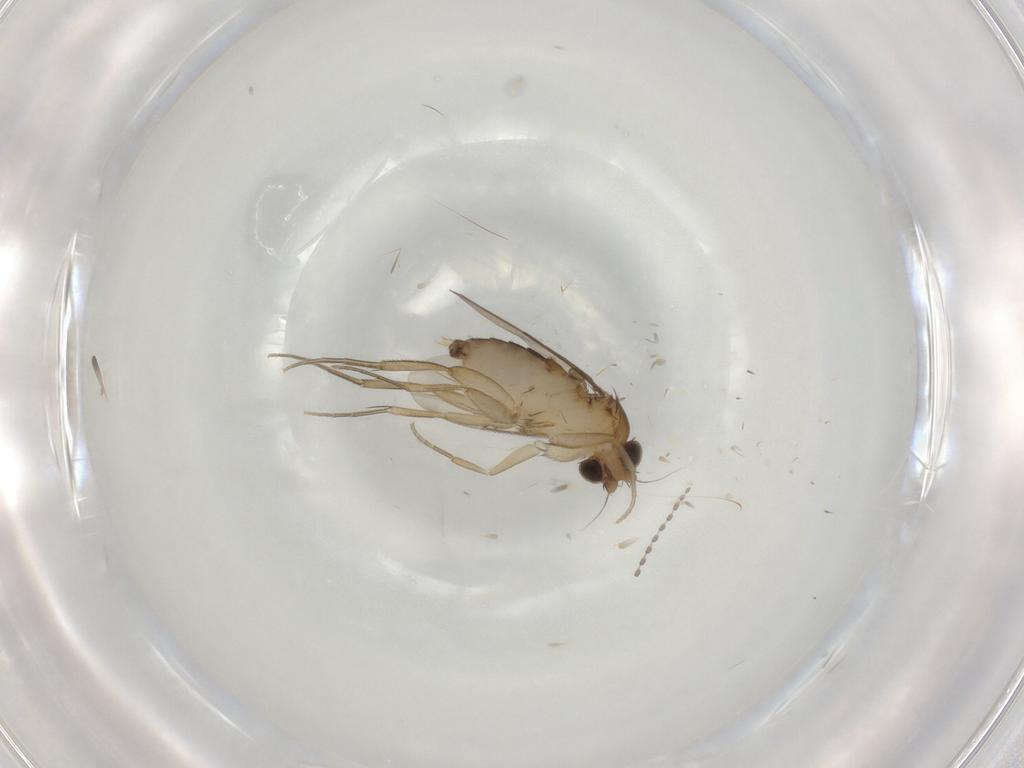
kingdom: Animalia
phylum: Arthropoda
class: Insecta
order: Diptera
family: Phoridae
